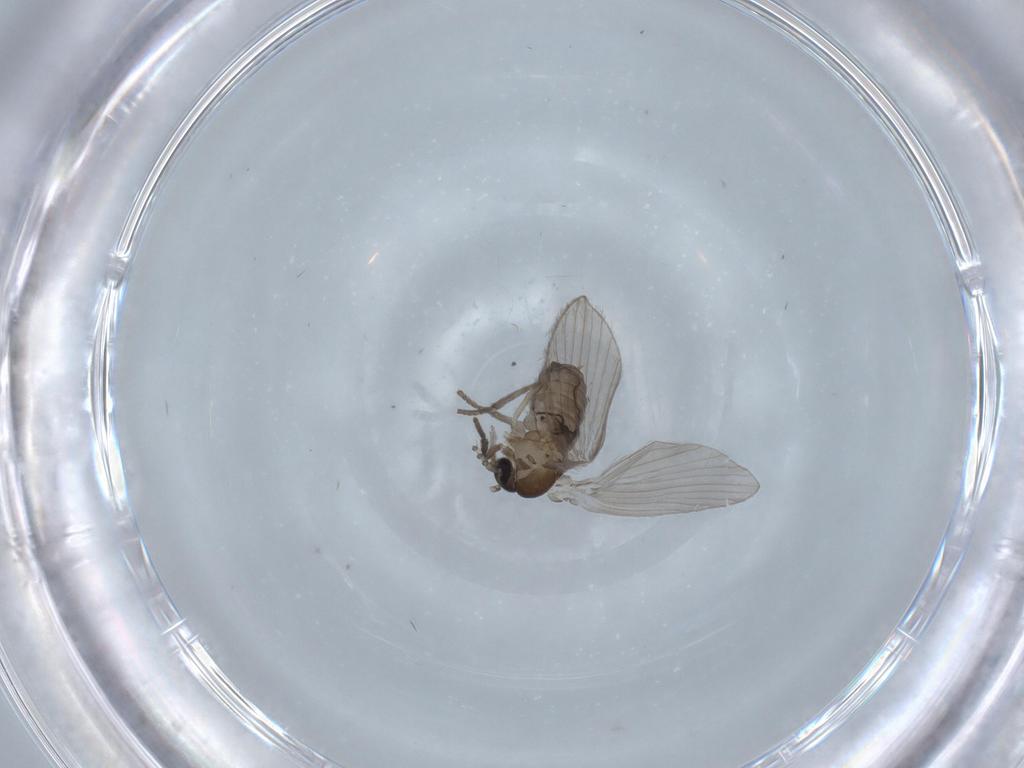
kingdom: Animalia
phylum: Arthropoda
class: Insecta
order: Diptera
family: Psychodidae
